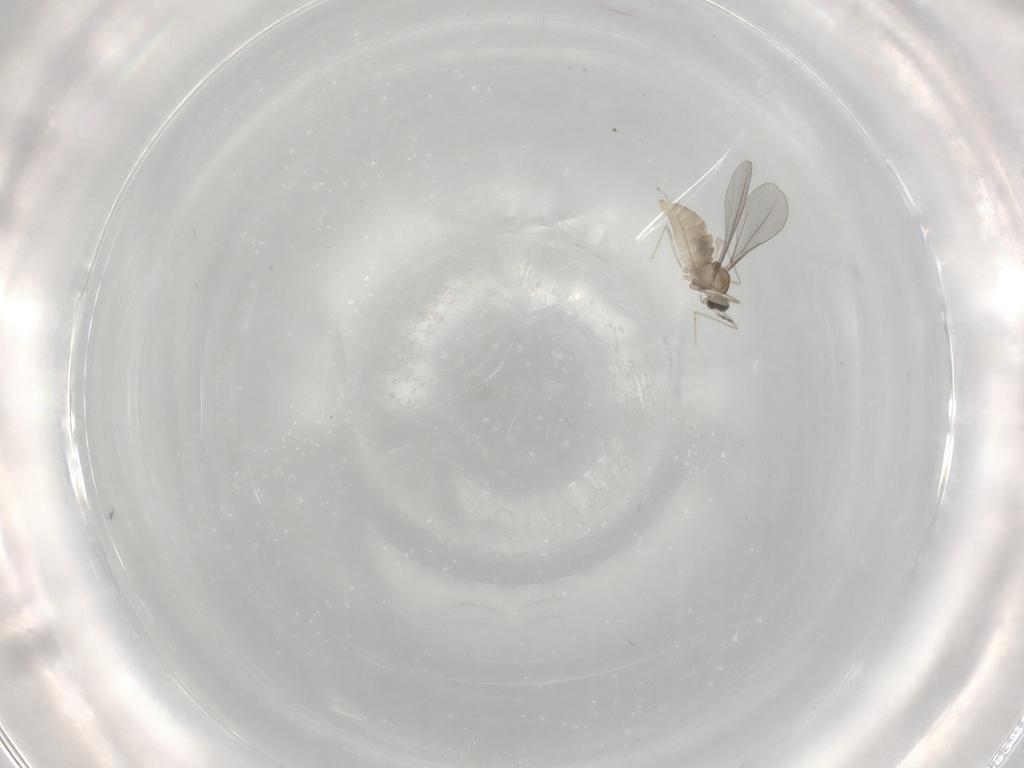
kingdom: Animalia
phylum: Arthropoda
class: Insecta
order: Diptera
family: Cecidomyiidae
